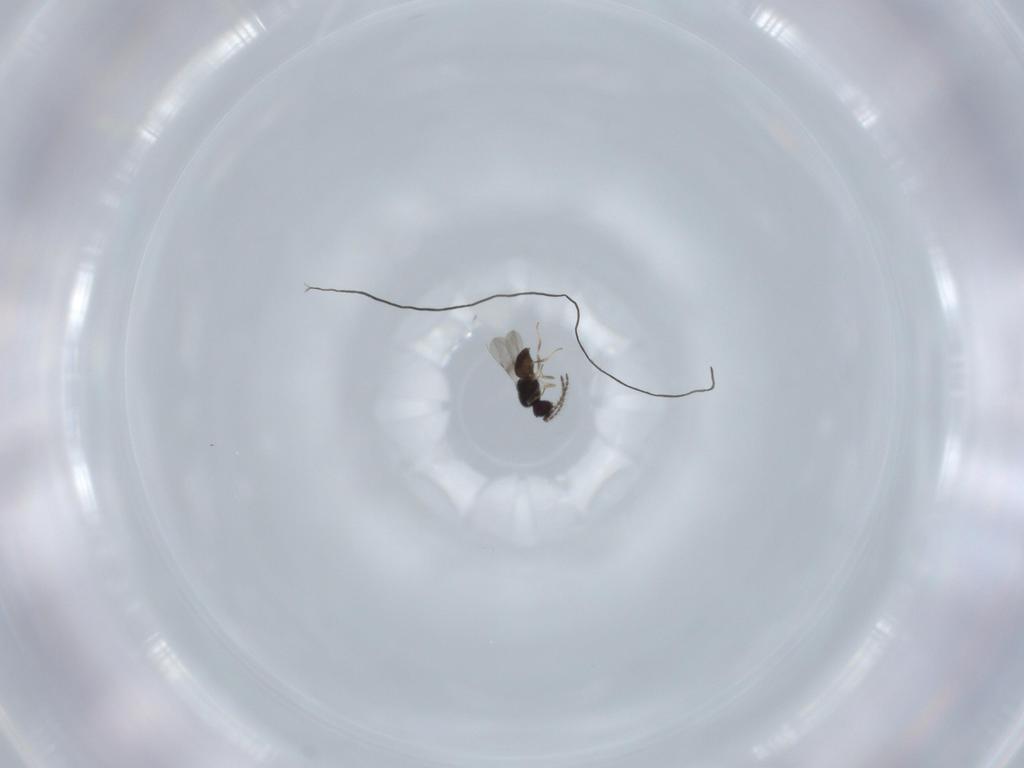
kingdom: Animalia
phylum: Arthropoda
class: Insecta
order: Hymenoptera
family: Ceraphronidae
